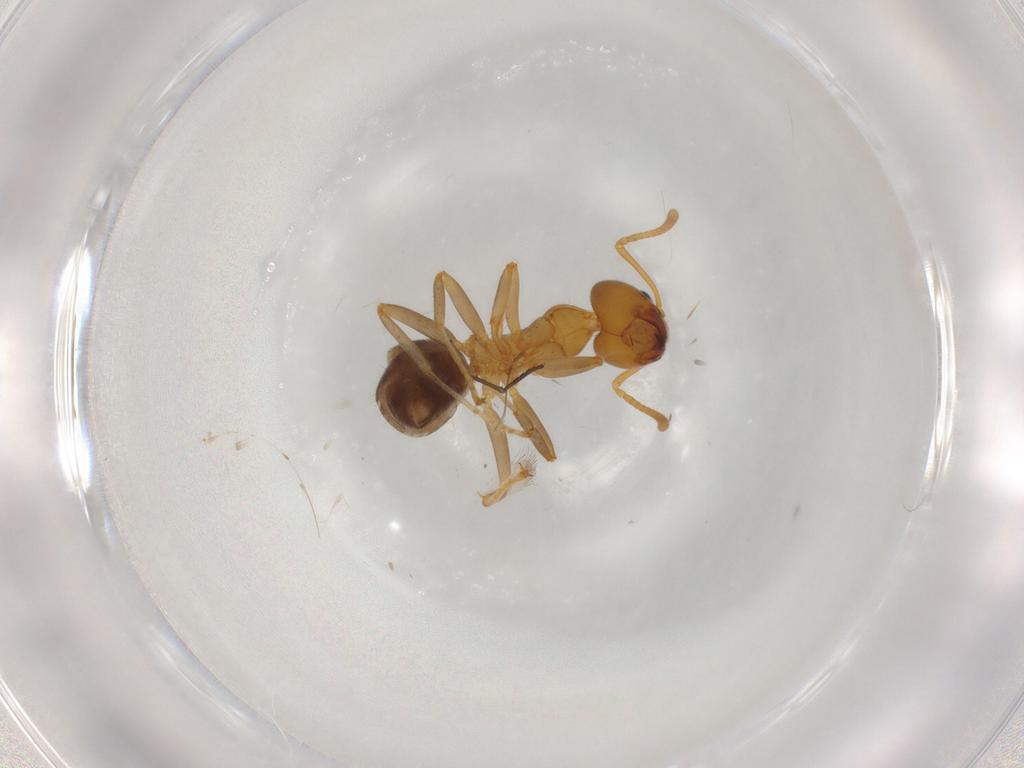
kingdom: Animalia
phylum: Arthropoda
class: Insecta
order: Hymenoptera
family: Formicidae
